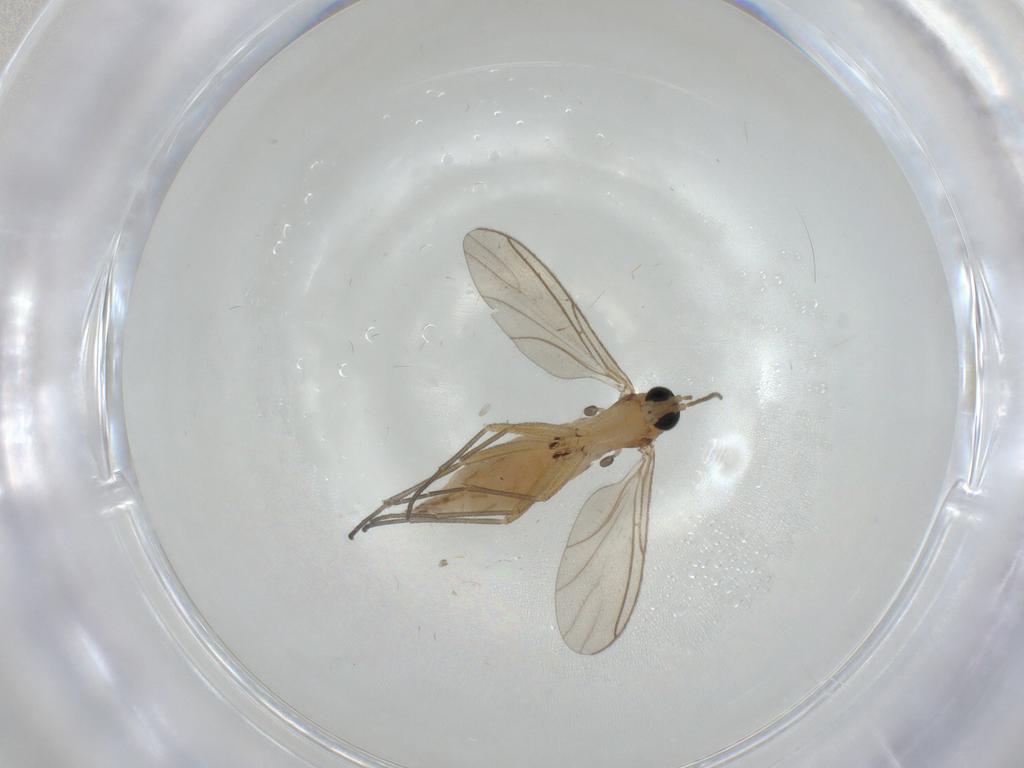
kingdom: Animalia
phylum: Arthropoda
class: Insecta
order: Diptera
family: Sciaridae
